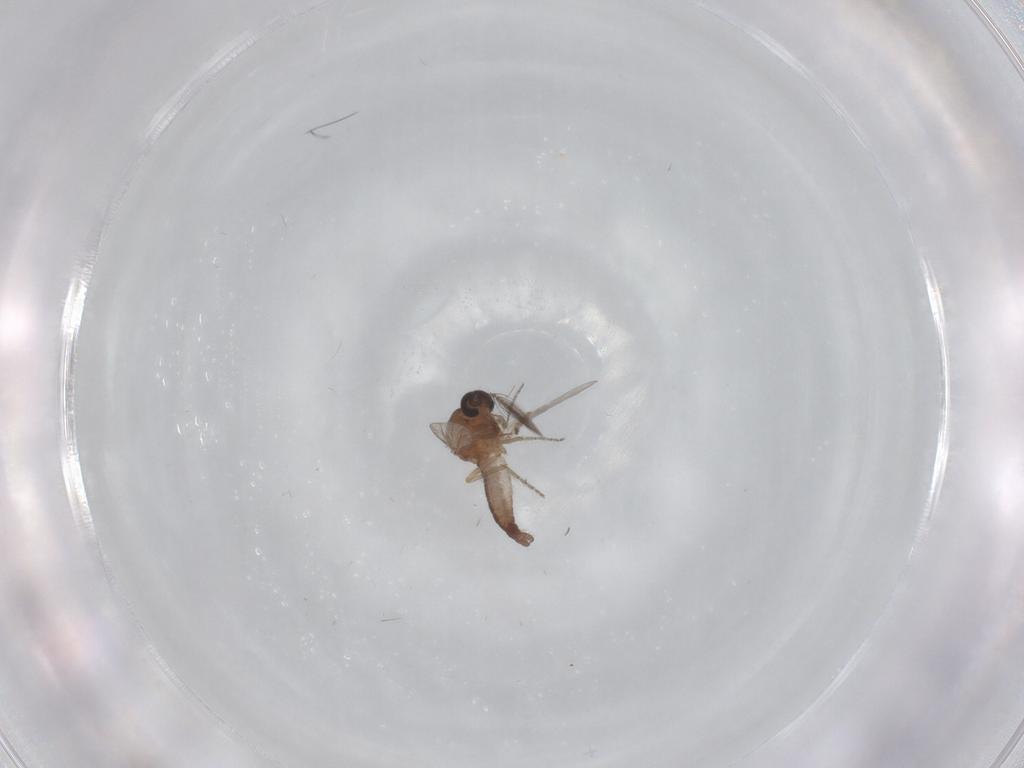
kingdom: Animalia
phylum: Arthropoda
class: Insecta
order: Diptera
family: Ceratopogonidae
